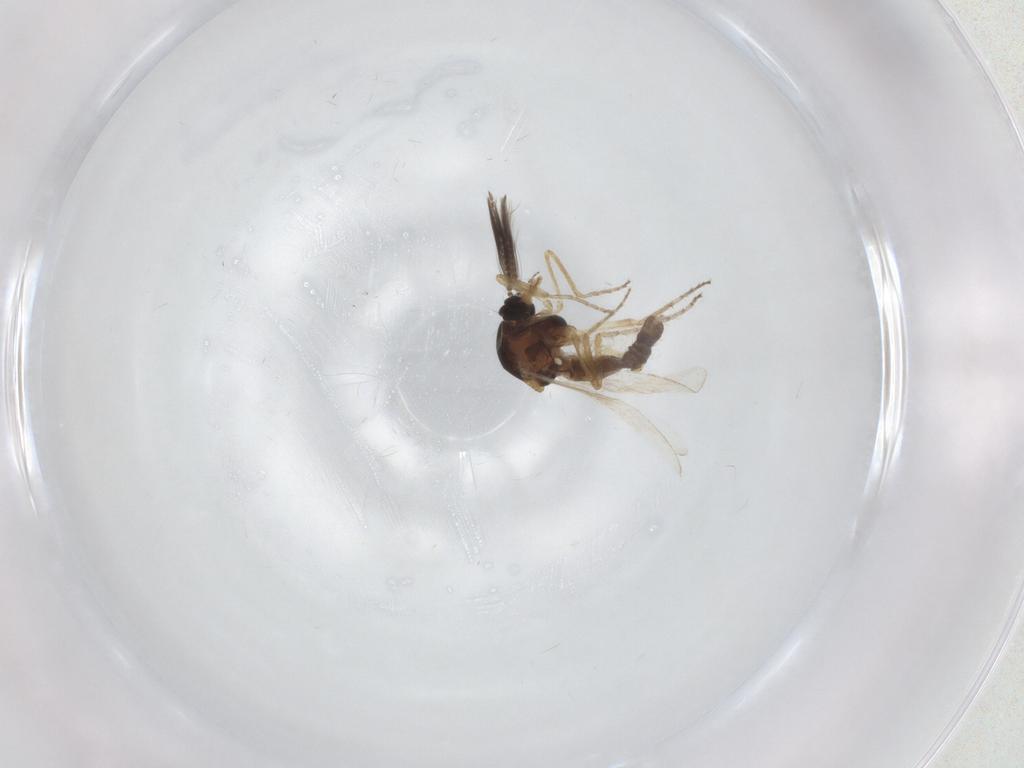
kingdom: Animalia
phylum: Arthropoda
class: Insecta
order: Diptera
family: Ceratopogonidae
